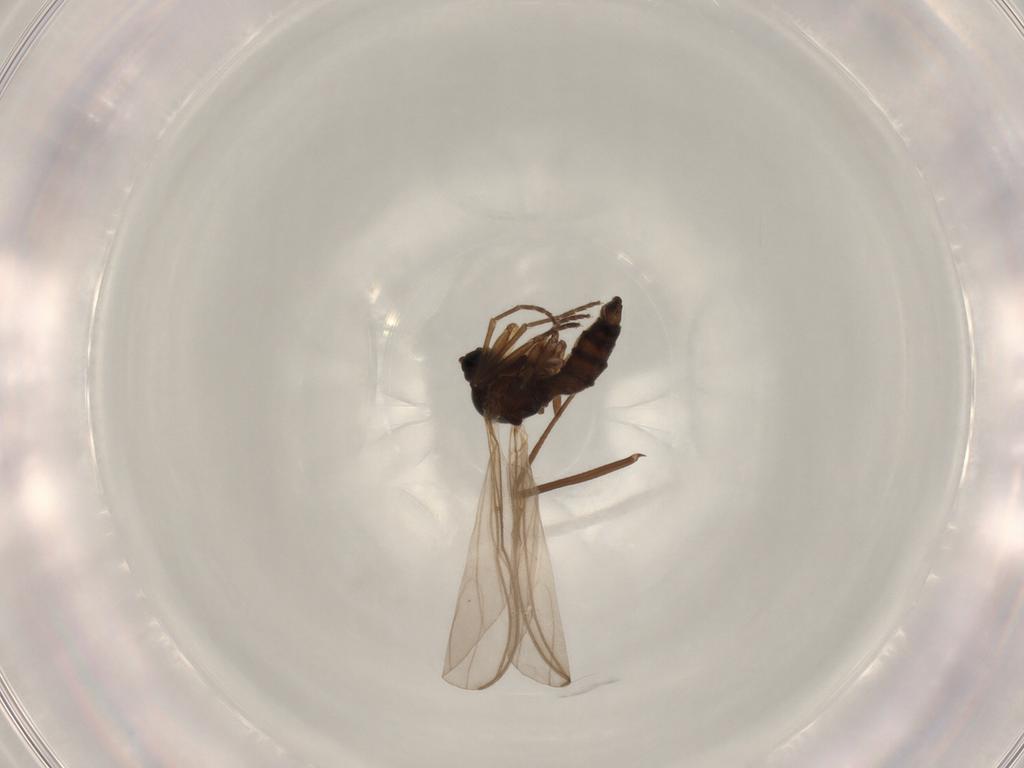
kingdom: Animalia
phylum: Arthropoda
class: Insecta
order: Diptera
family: Sciaridae
